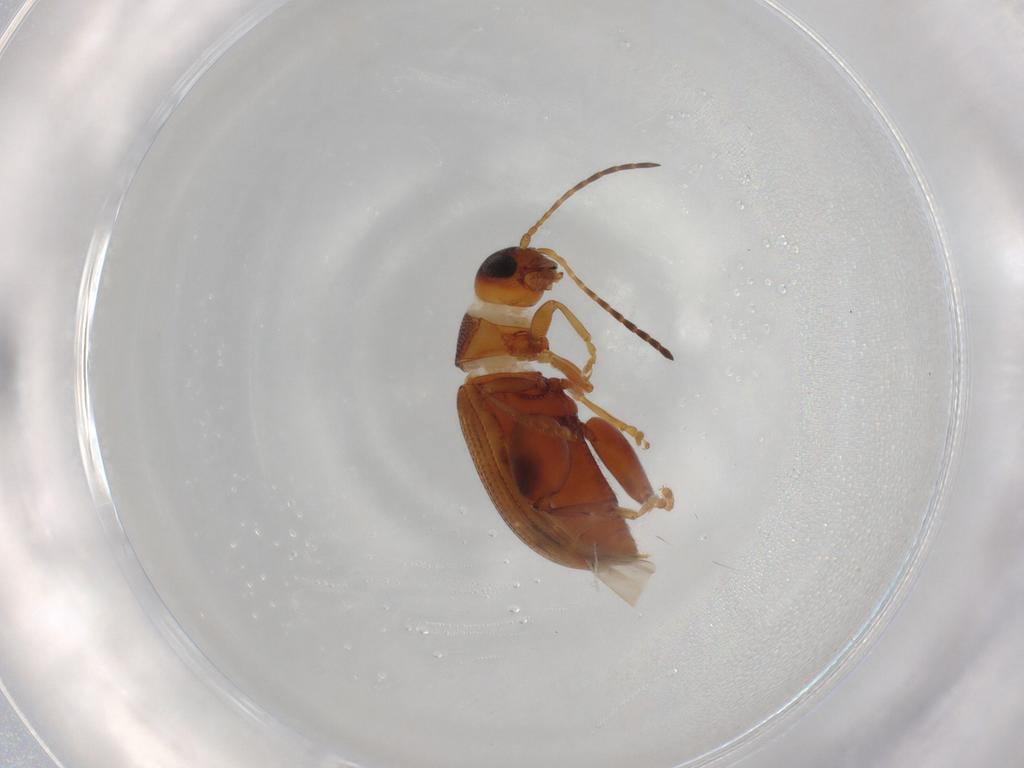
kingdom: Animalia
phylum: Arthropoda
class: Insecta
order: Coleoptera
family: Chrysomelidae
